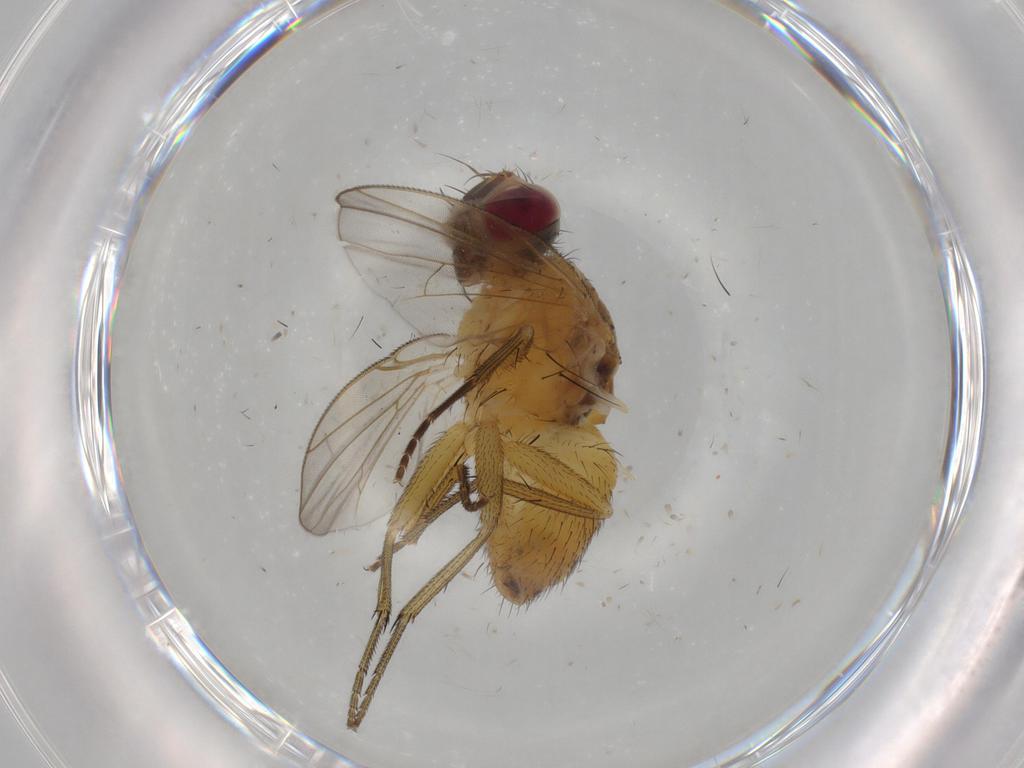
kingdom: Animalia
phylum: Arthropoda
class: Insecta
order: Diptera
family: Muscidae
